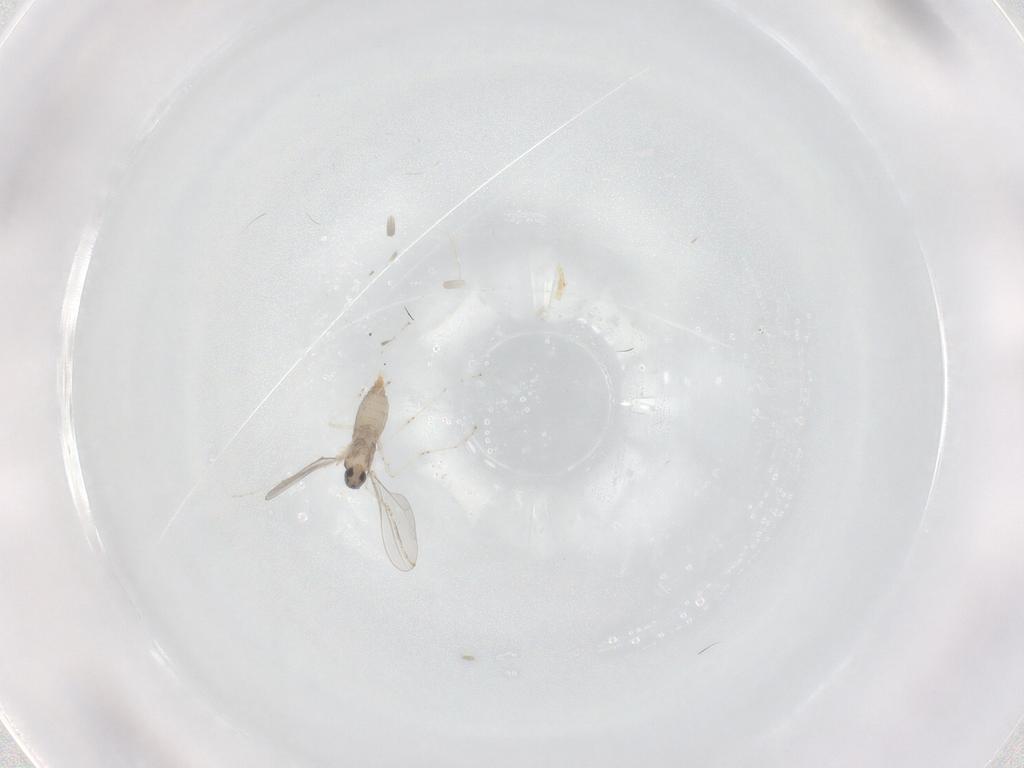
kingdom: Animalia
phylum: Arthropoda
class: Insecta
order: Diptera
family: Cecidomyiidae
